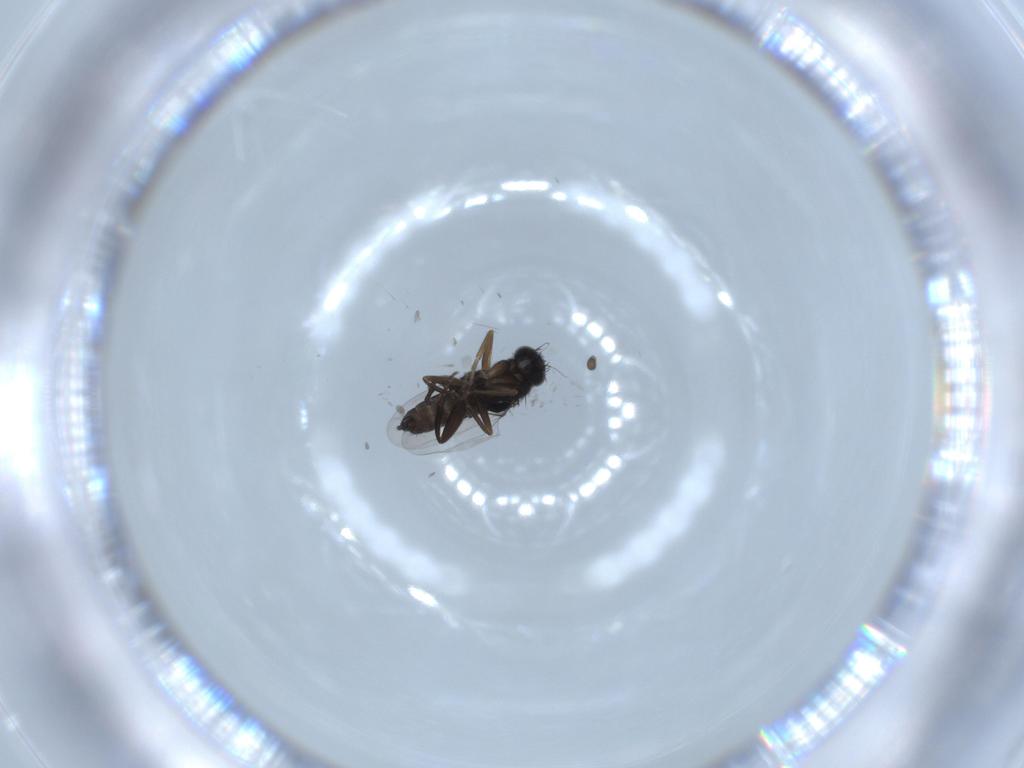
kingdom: Animalia
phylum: Arthropoda
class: Insecta
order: Diptera
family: Phoridae
